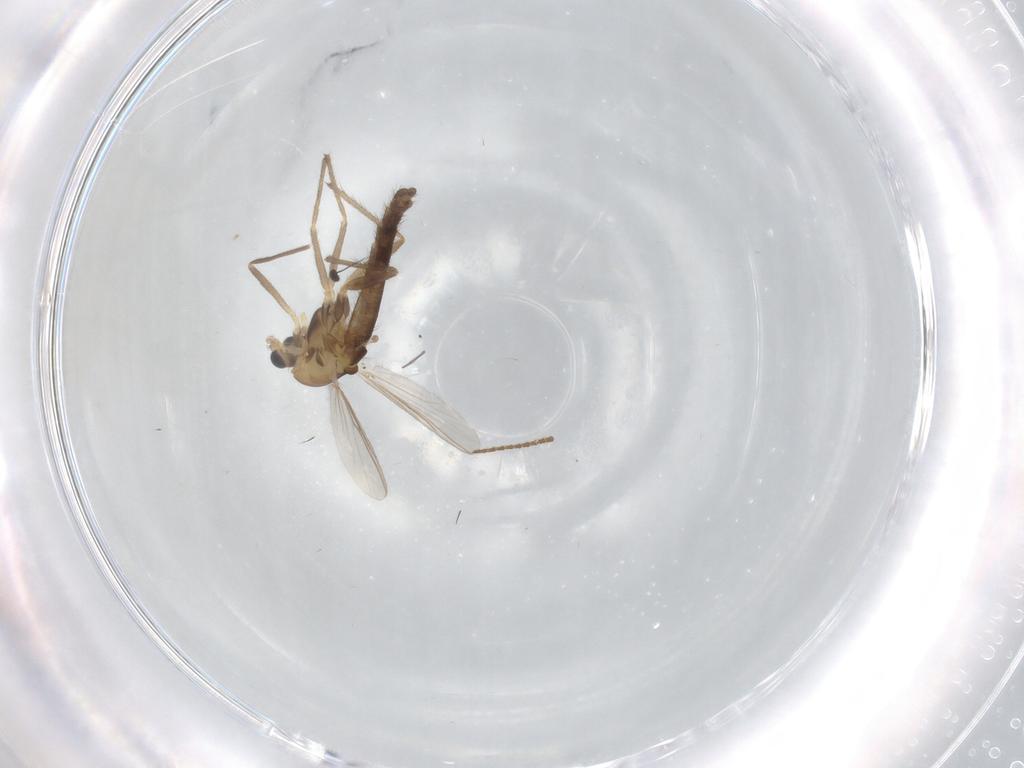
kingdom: Animalia
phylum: Arthropoda
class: Insecta
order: Diptera
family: Chironomidae
